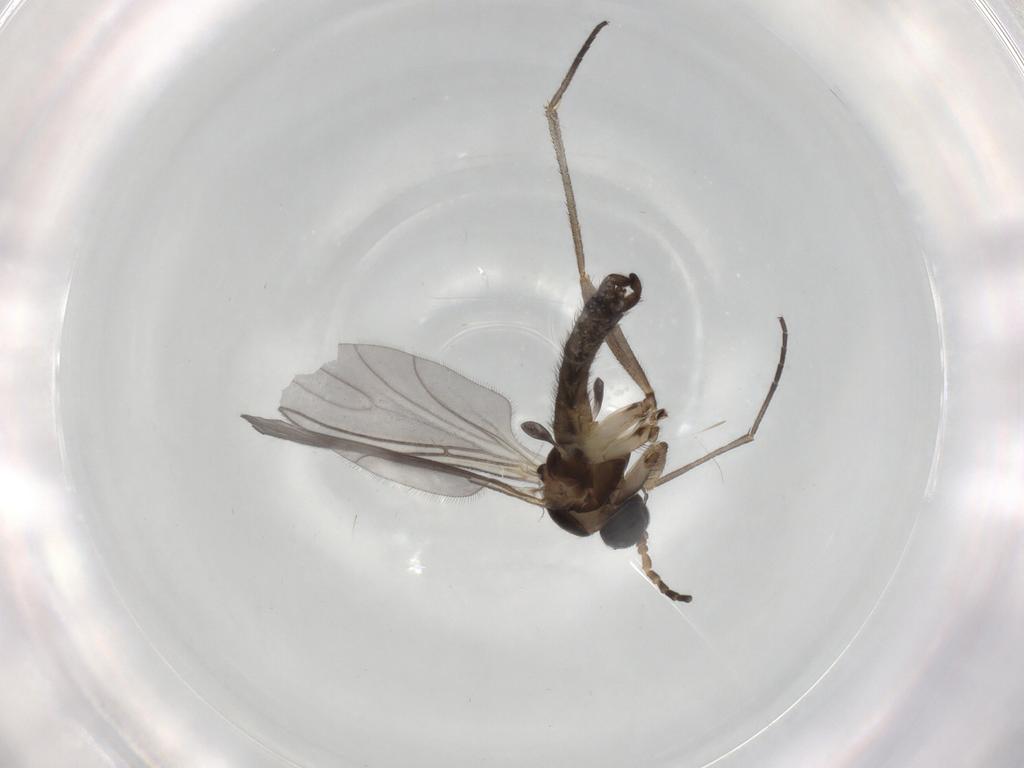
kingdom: Animalia
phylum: Arthropoda
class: Insecta
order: Diptera
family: Sciaridae
